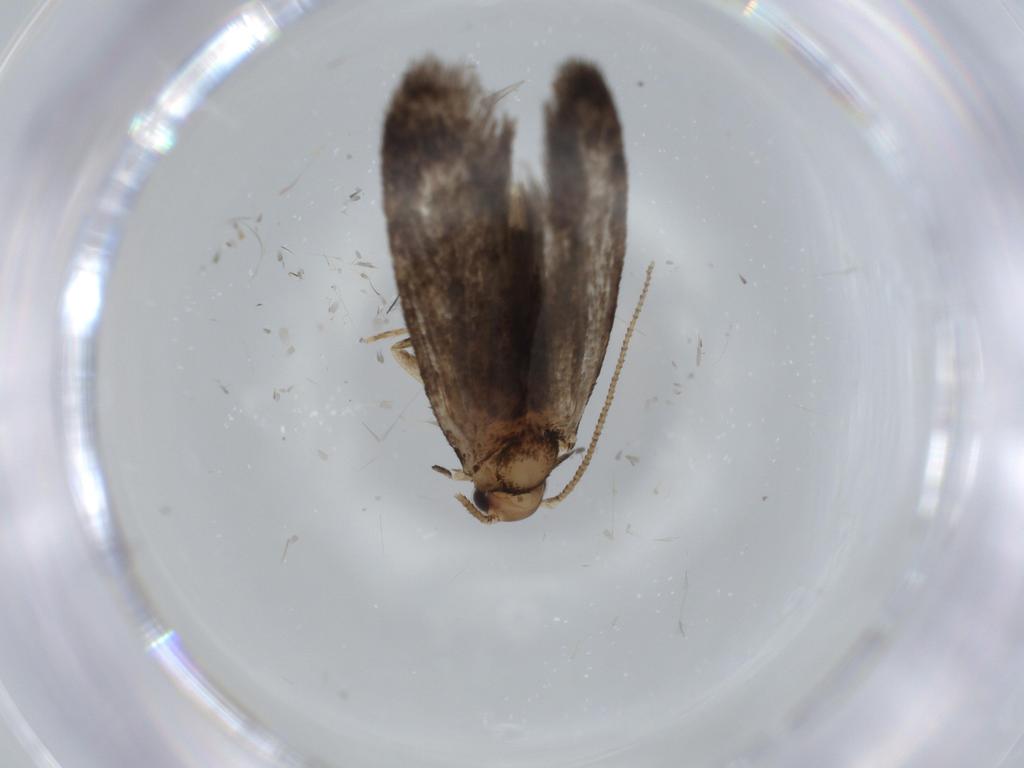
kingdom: Animalia
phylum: Arthropoda
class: Insecta
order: Lepidoptera
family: Tineidae
